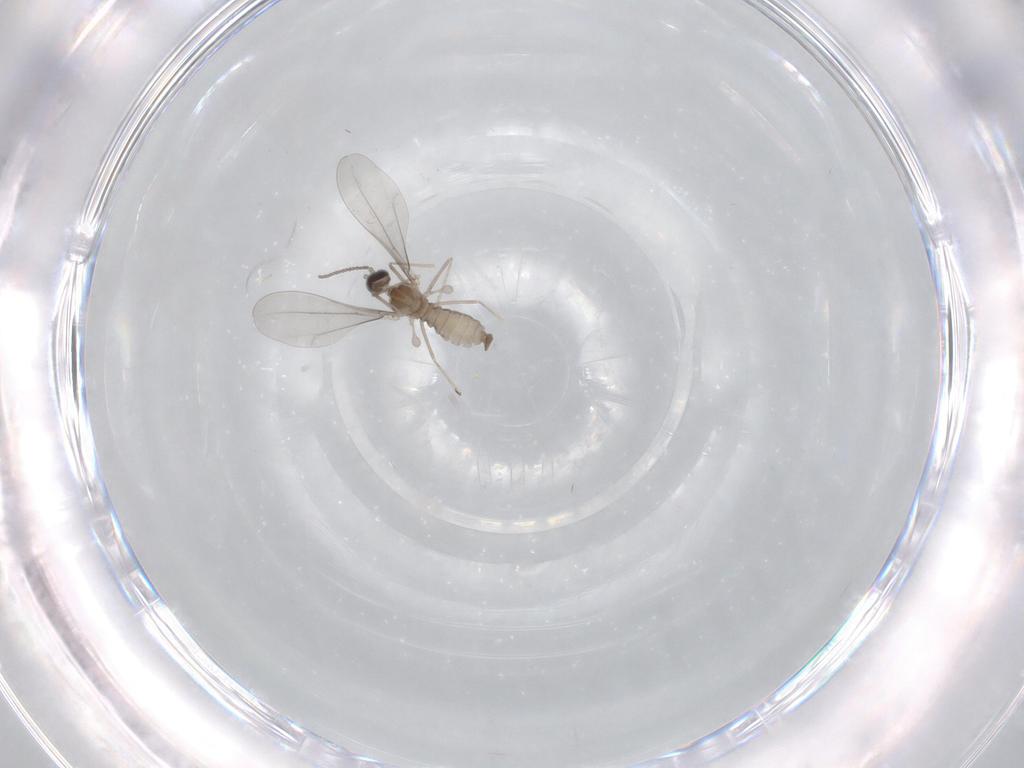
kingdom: Animalia
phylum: Arthropoda
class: Insecta
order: Diptera
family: Cecidomyiidae
